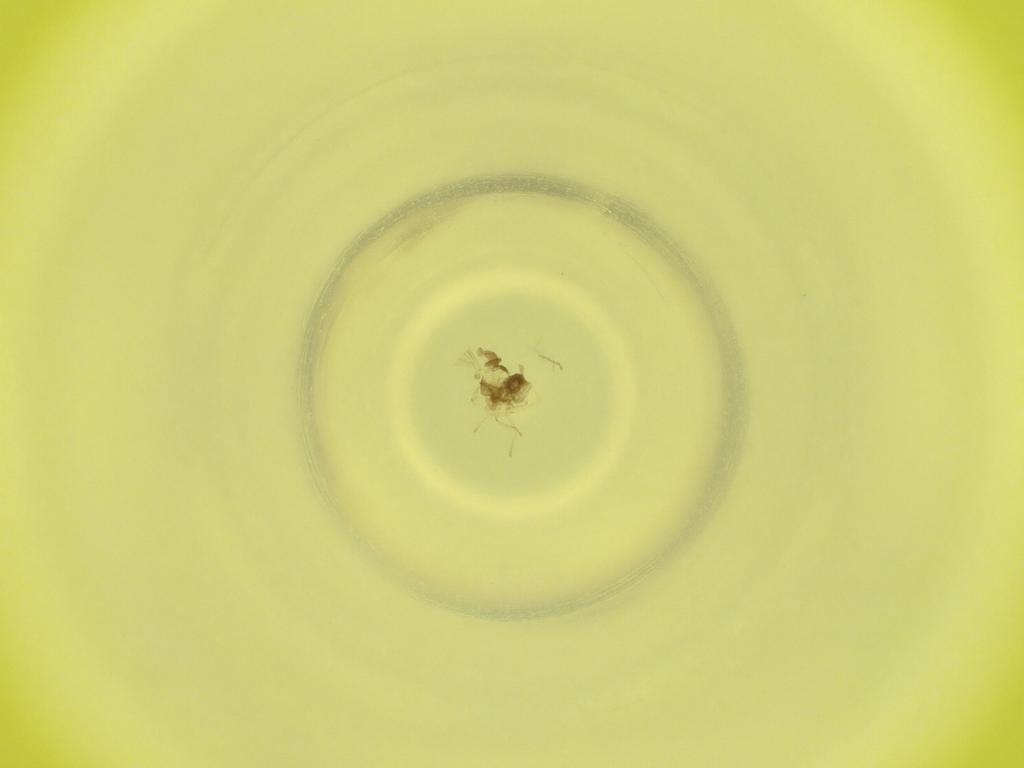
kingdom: Animalia
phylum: Arthropoda
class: Insecta
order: Diptera
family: Cecidomyiidae
